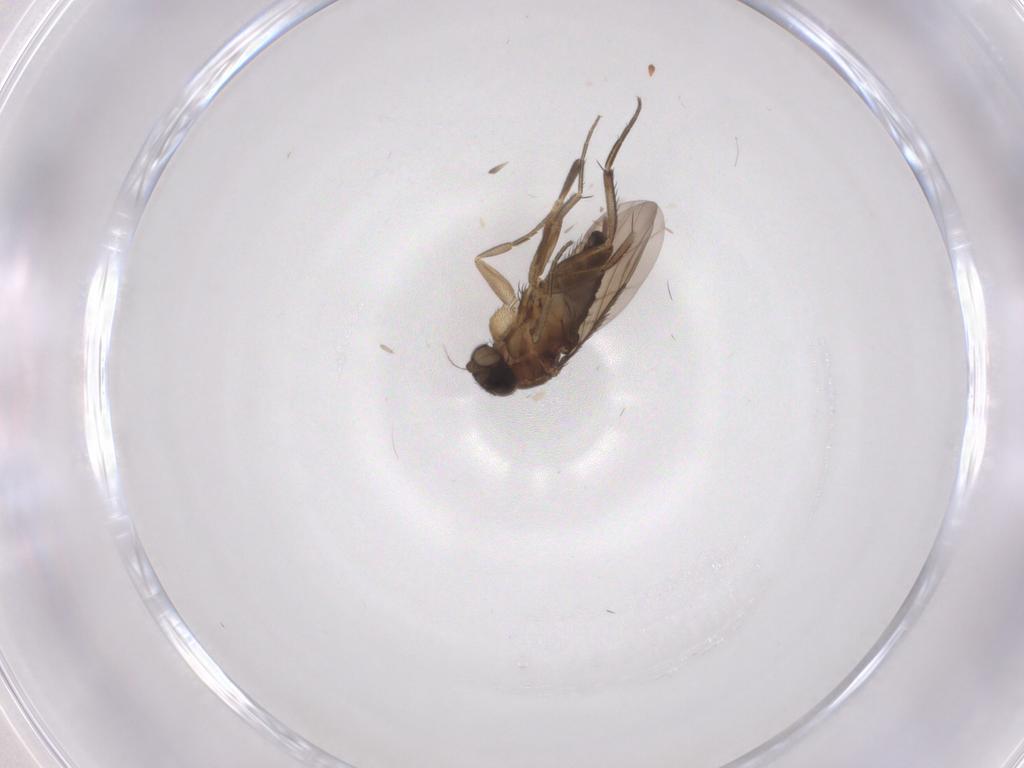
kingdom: Animalia
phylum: Arthropoda
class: Insecta
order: Diptera
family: Phoridae
